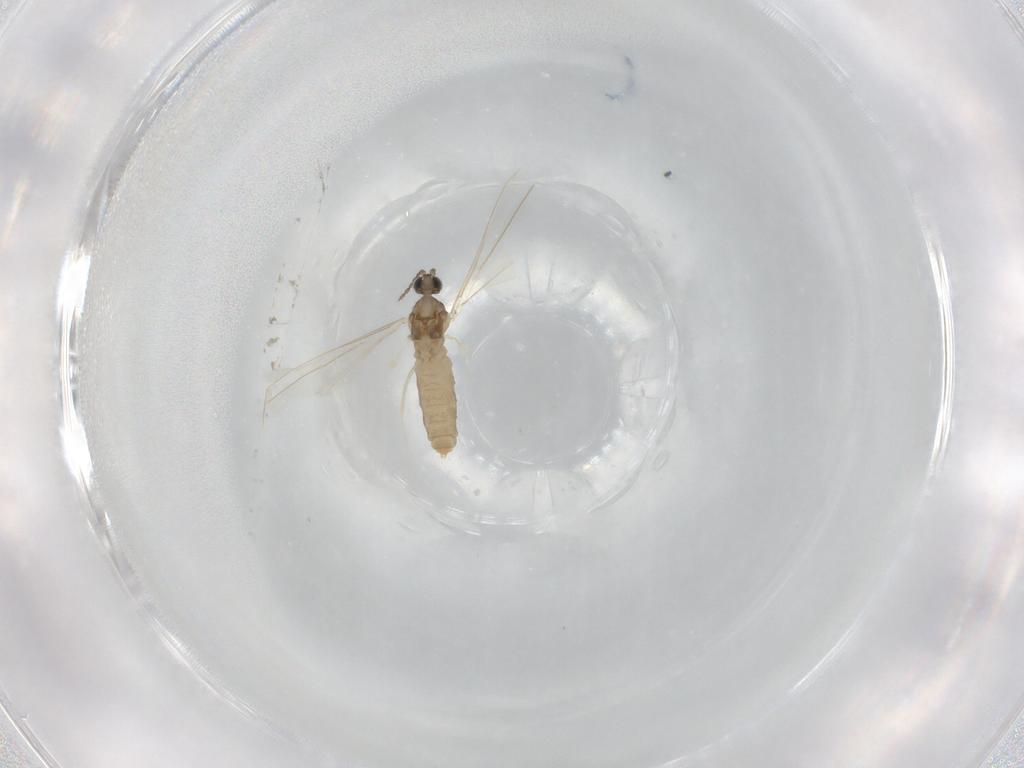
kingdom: Animalia
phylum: Arthropoda
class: Insecta
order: Diptera
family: Cecidomyiidae
